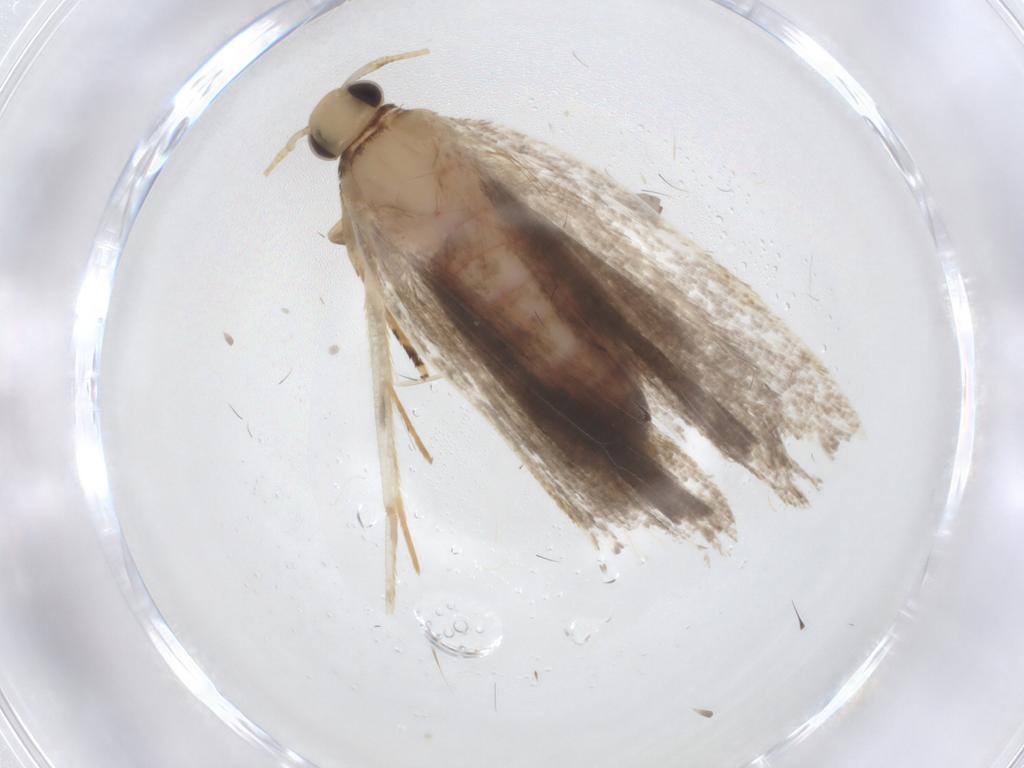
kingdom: Animalia
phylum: Arthropoda
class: Insecta
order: Lepidoptera
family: Autostichidae
